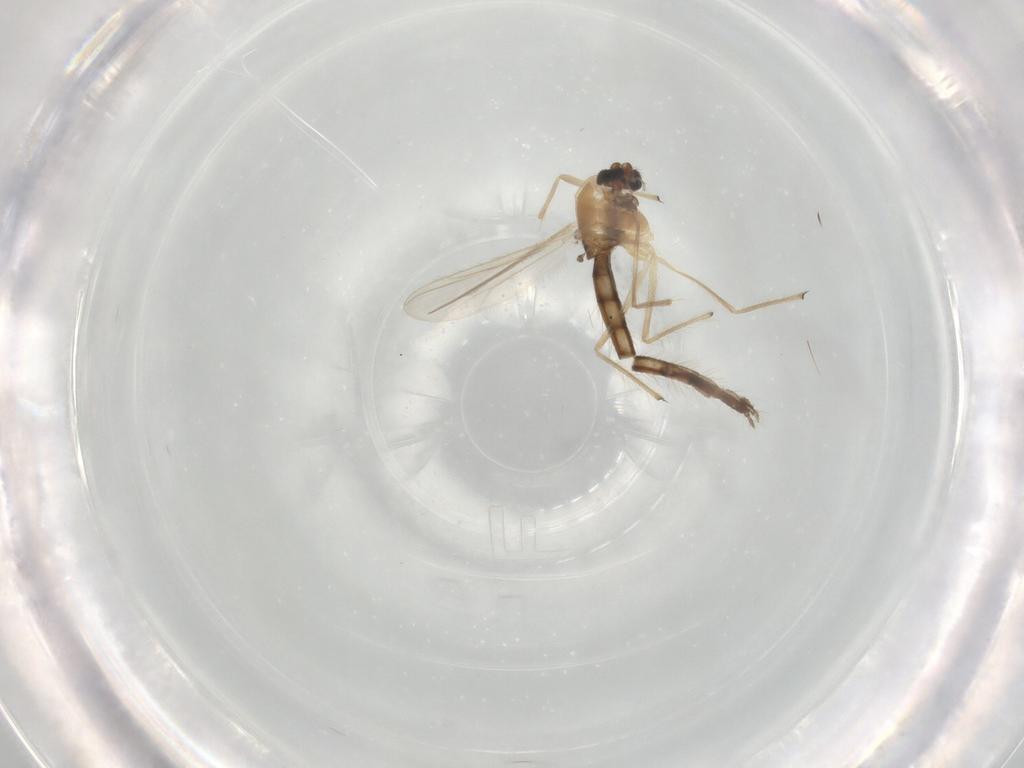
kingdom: Animalia
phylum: Arthropoda
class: Insecta
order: Diptera
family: Chironomidae
